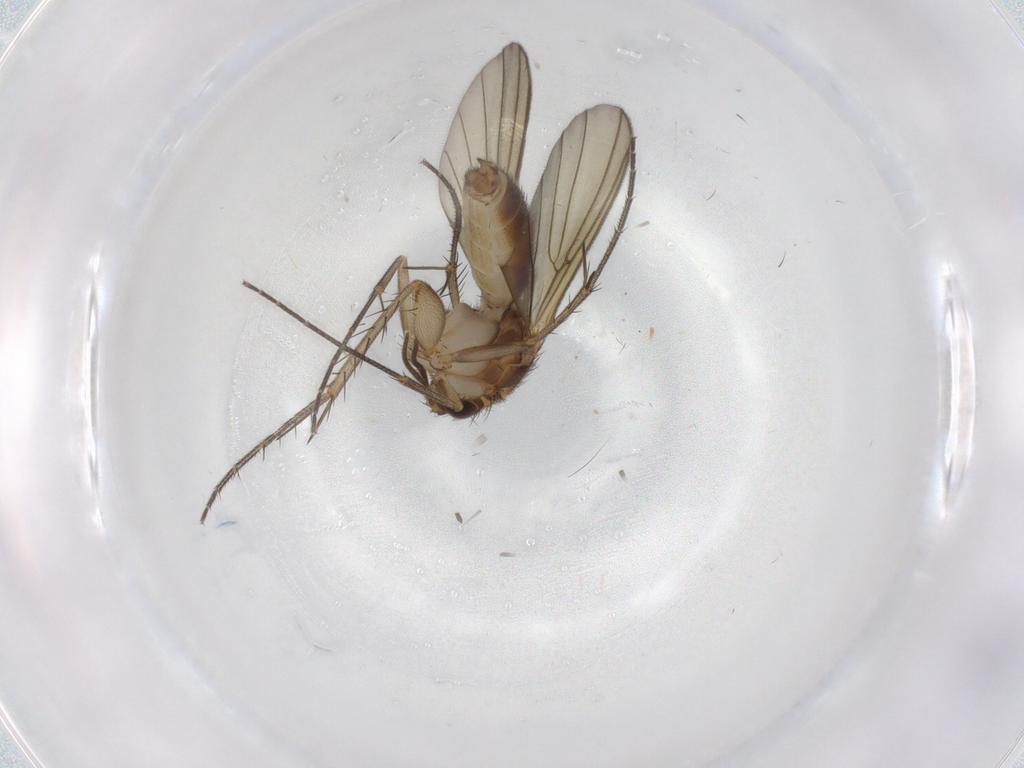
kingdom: Animalia
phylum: Arthropoda
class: Insecta
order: Diptera
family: Mycetophilidae
